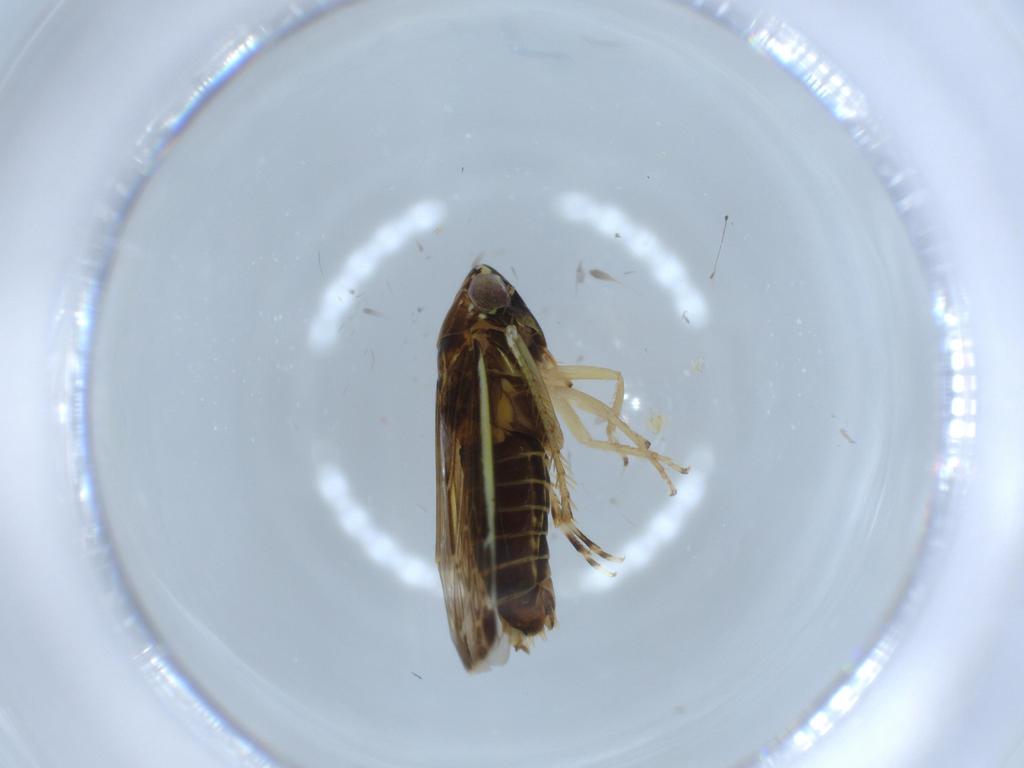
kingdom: Animalia
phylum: Arthropoda
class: Insecta
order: Hemiptera
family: Cicadellidae
